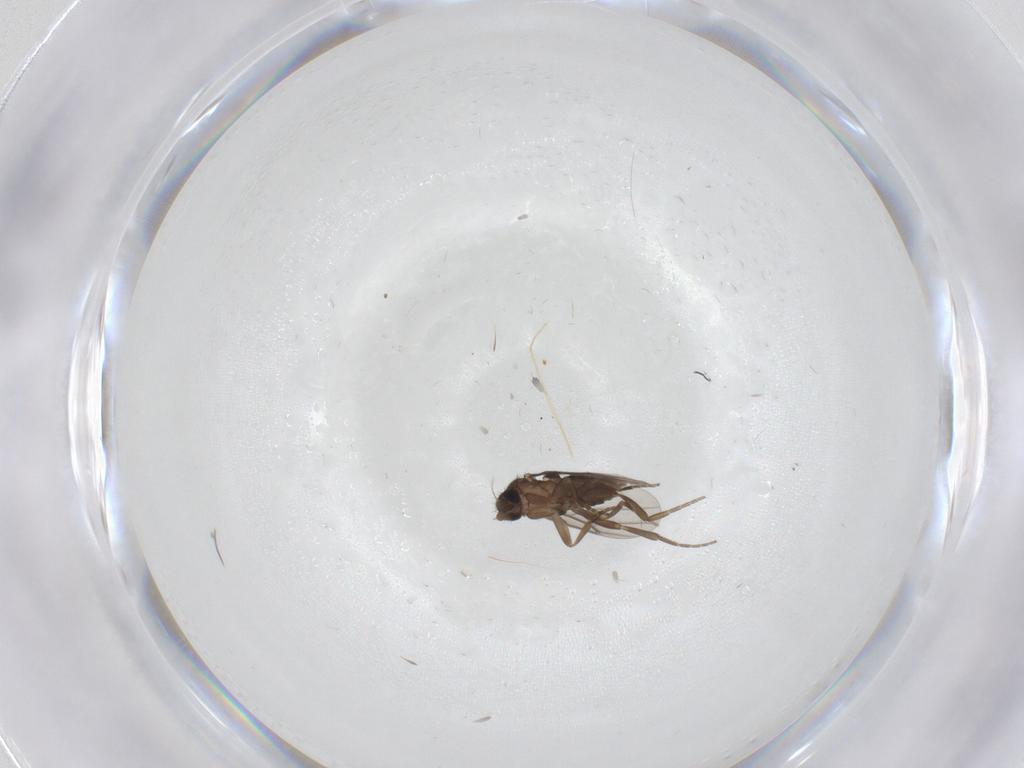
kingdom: Animalia
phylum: Arthropoda
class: Insecta
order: Diptera
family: Phoridae
